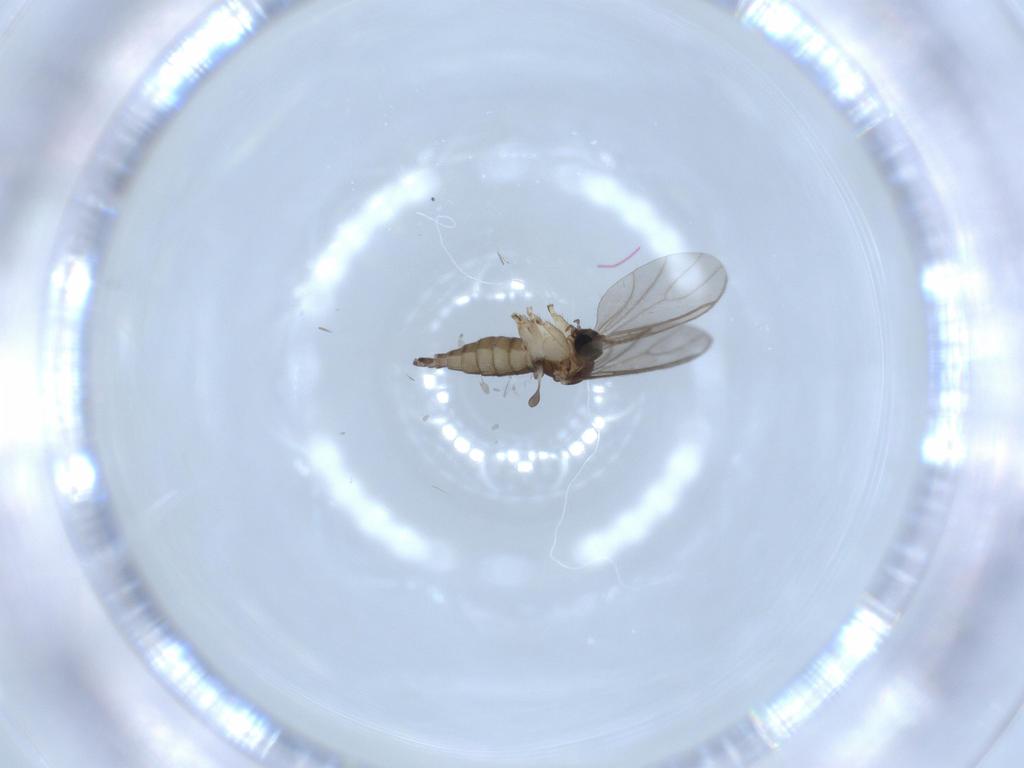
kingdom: Animalia
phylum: Arthropoda
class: Insecta
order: Diptera
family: Sciaridae
